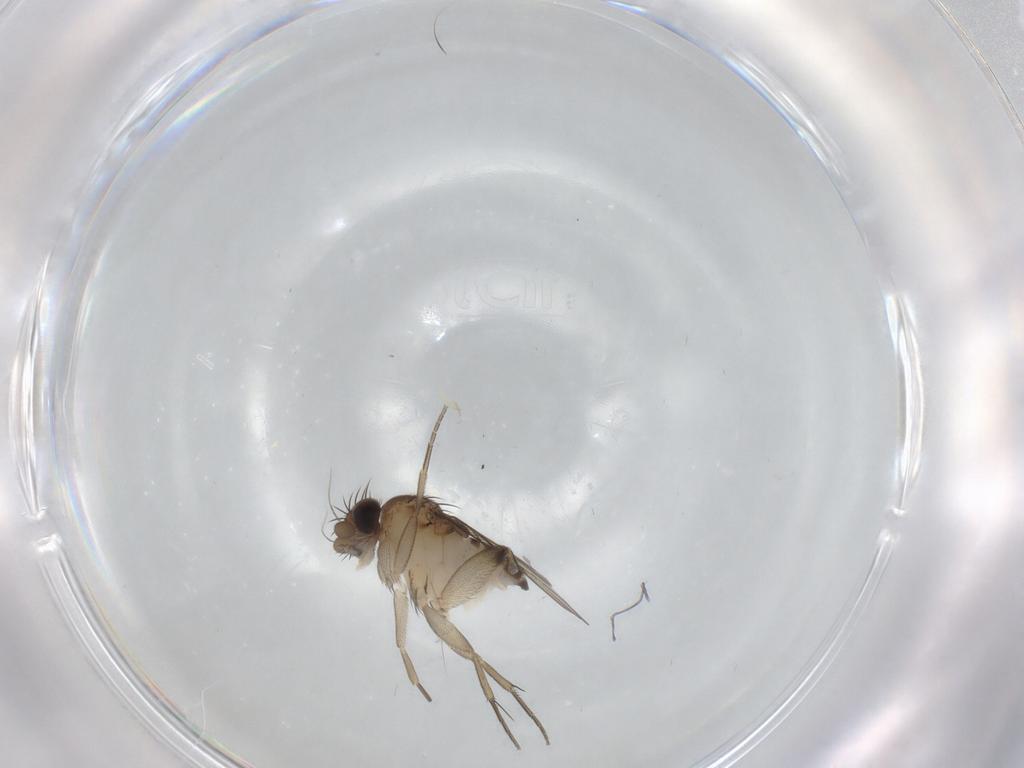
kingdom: Animalia
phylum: Arthropoda
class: Insecta
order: Diptera
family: Phoridae
